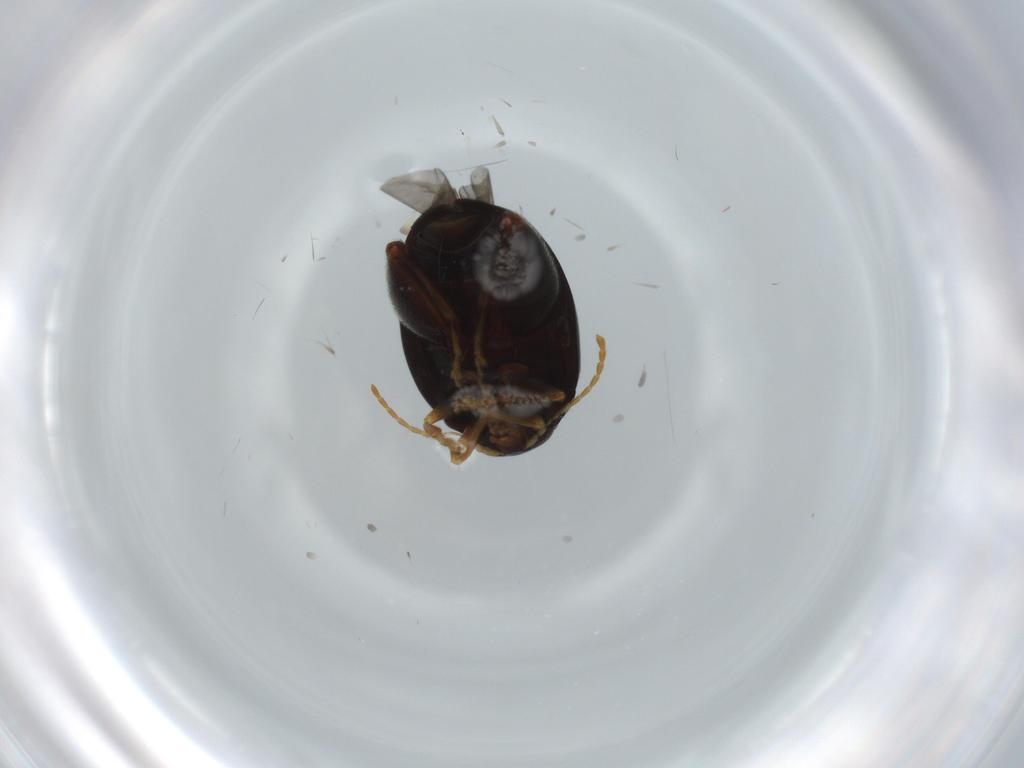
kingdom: Animalia
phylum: Arthropoda
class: Insecta
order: Coleoptera
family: Chrysomelidae
